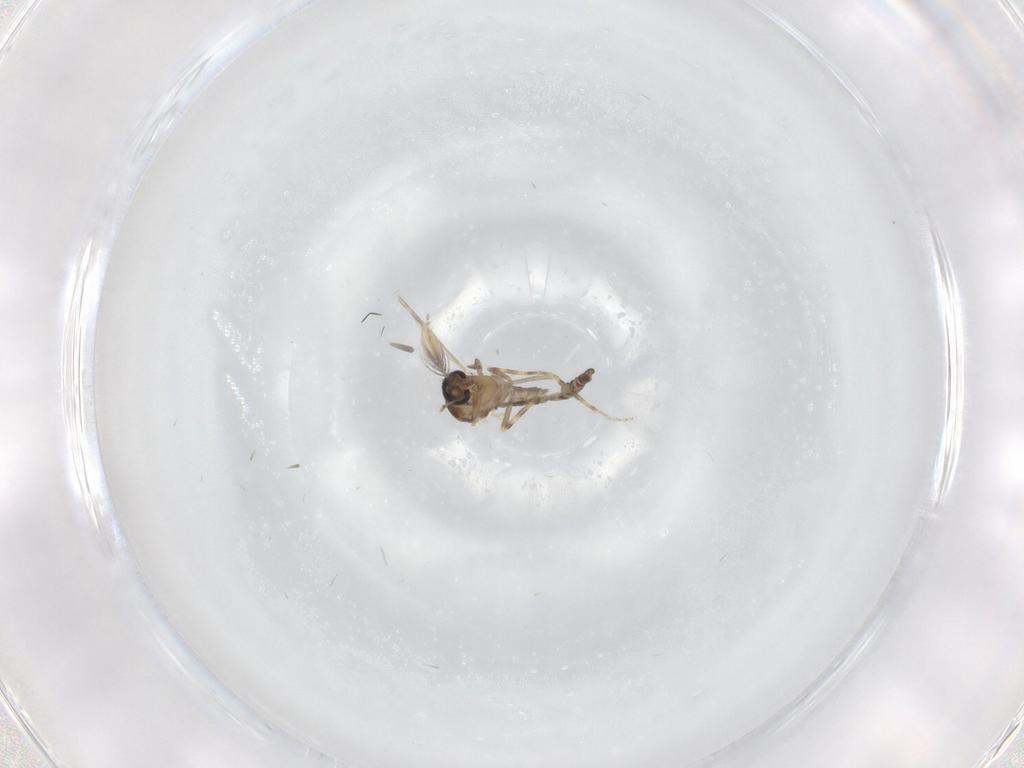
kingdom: Animalia
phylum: Arthropoda
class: Insecta
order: Diptera
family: Ceratopogonidae
